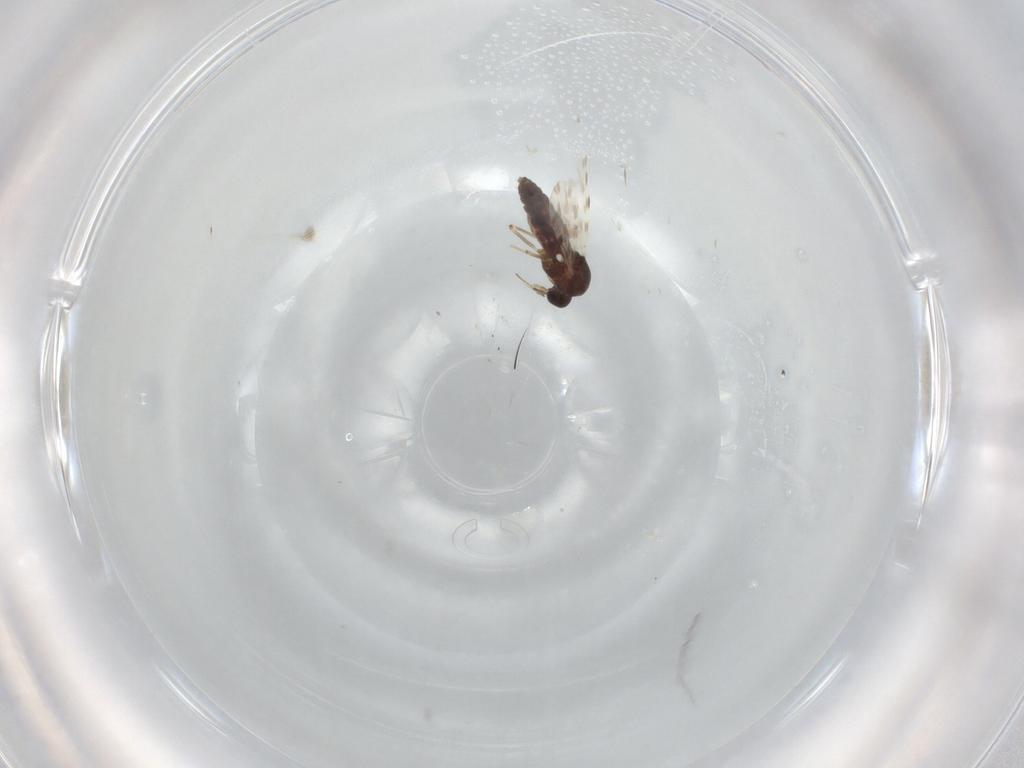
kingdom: Animalia
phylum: Arthropoda
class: Insecta
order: Diptera
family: Ceratopogonidae
